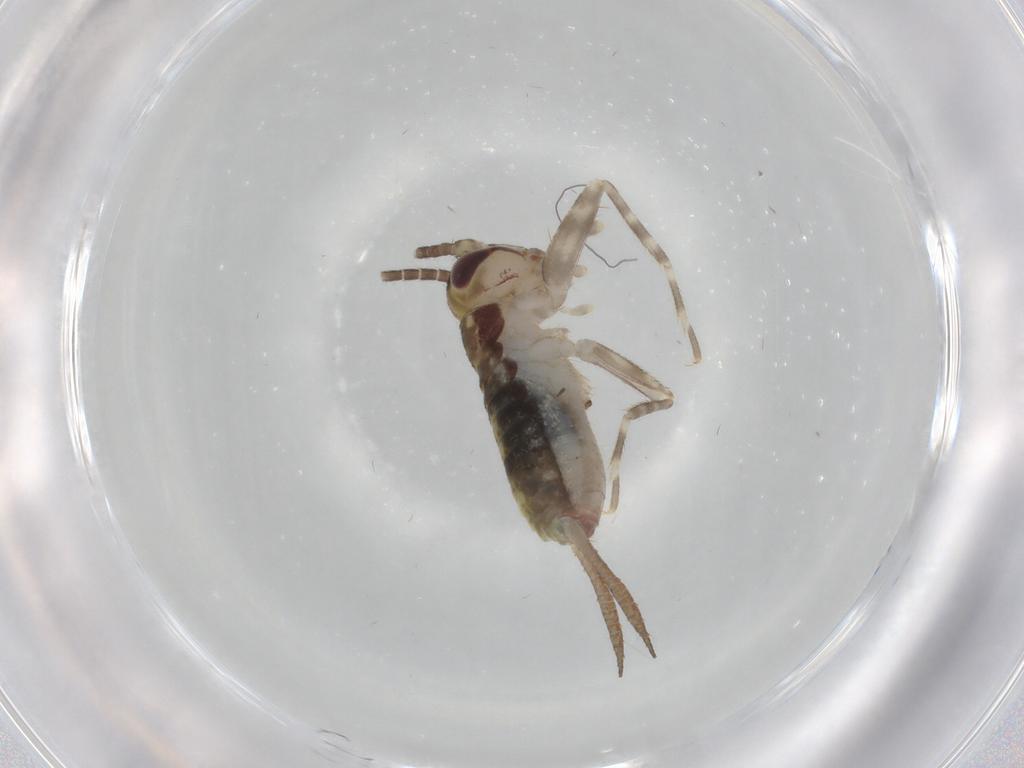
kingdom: Animalia
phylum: Arthropoda
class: Insecta
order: Orthoptera
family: Gryllidae
